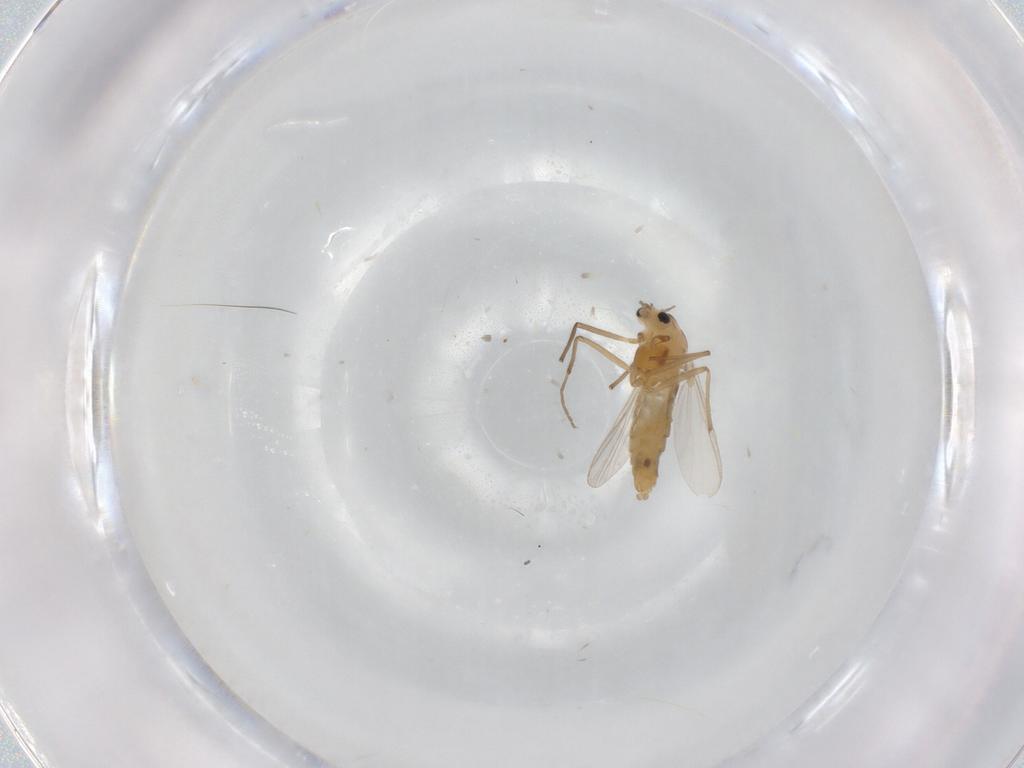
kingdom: Animalia
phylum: Arthropoda
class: Insecta
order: Diptera
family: Chironomidae
